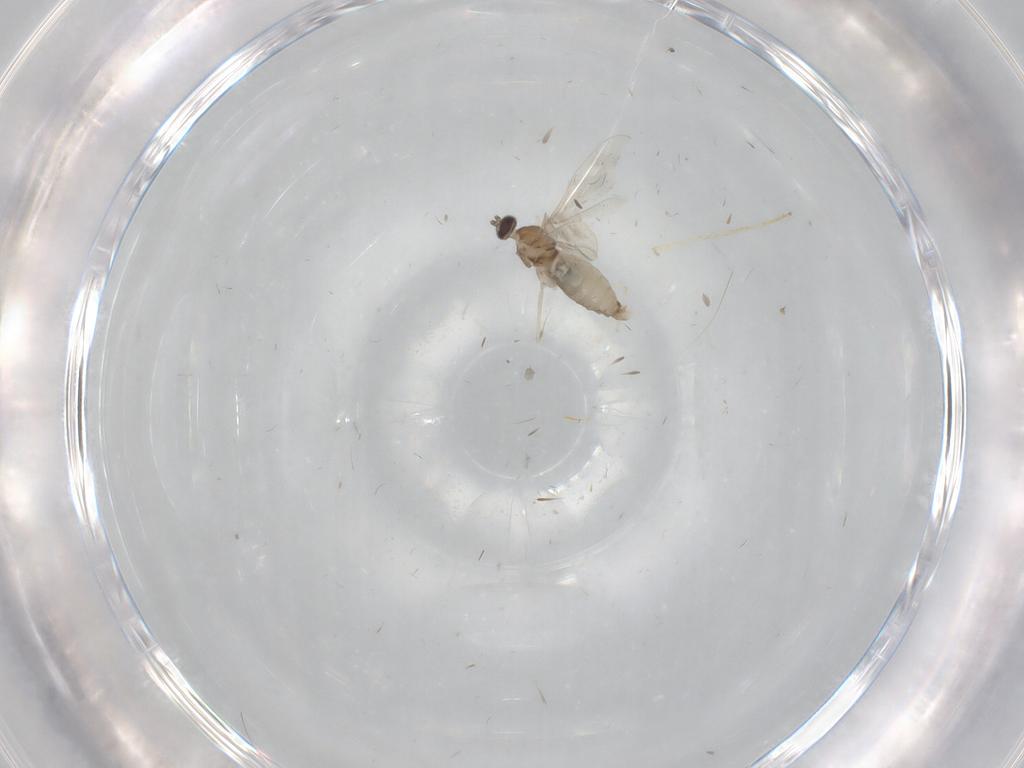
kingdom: Animalia
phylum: Arthropoda
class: Insecta
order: Diptera
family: Cecidomyiidae
